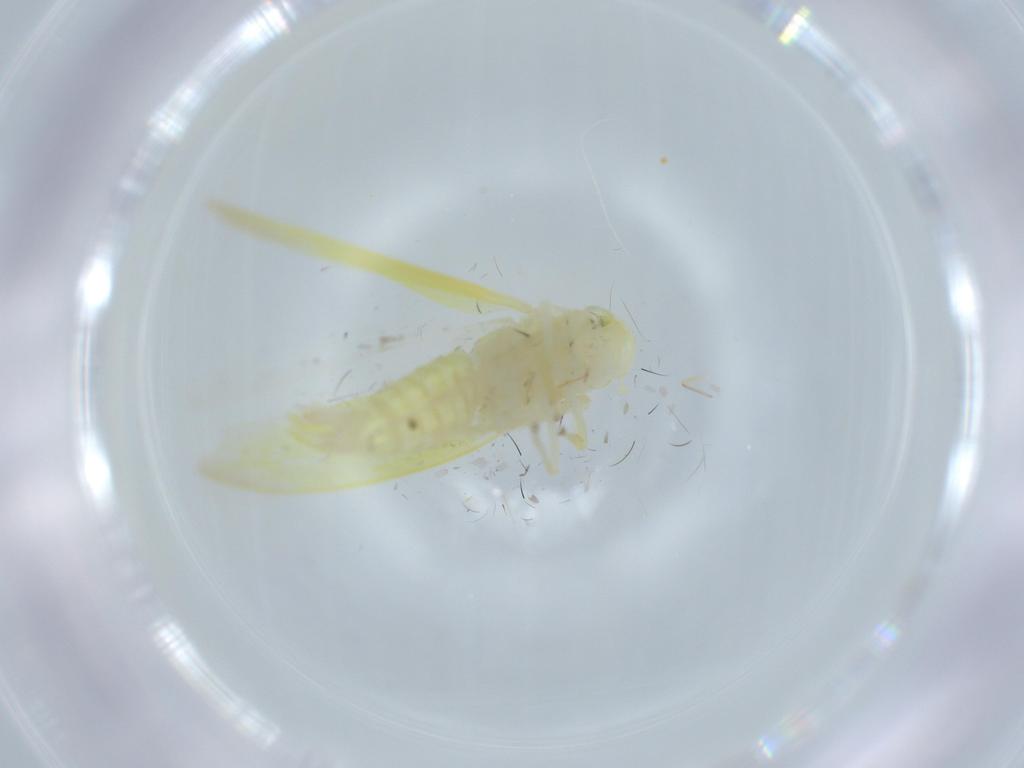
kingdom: Animalia
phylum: Arthropoda
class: Insecta
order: Hemiptera
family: Cicadellidae
